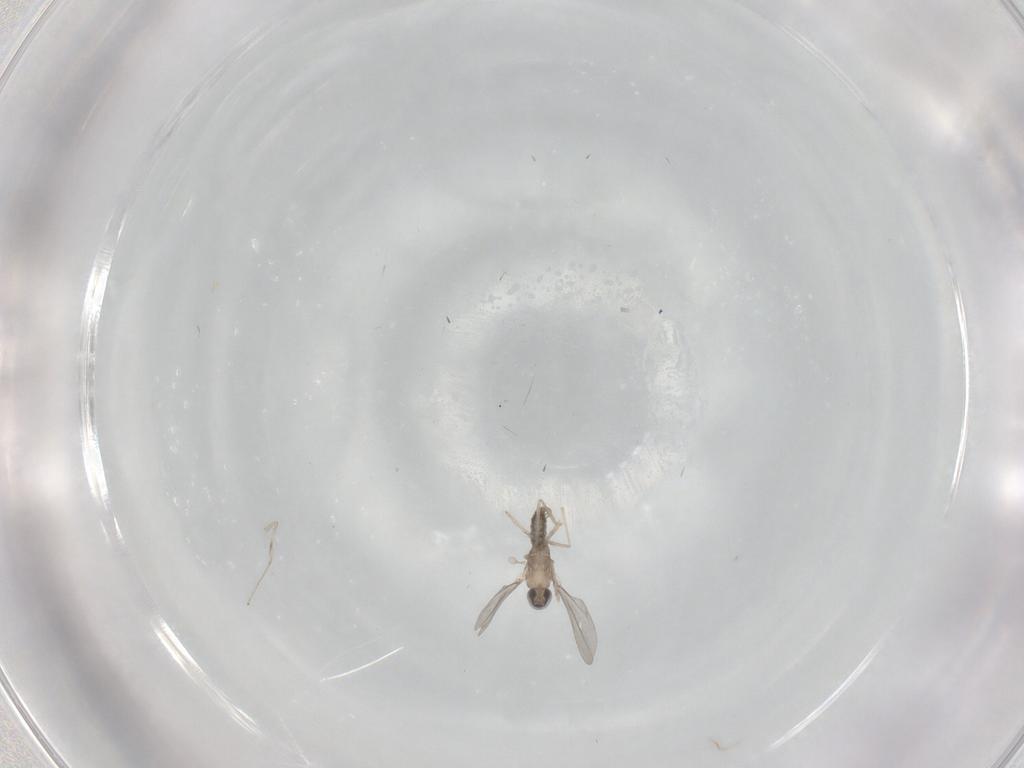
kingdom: Animalia
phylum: Arthropoda
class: Insecta
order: Diptera
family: Cecidomyiidae
